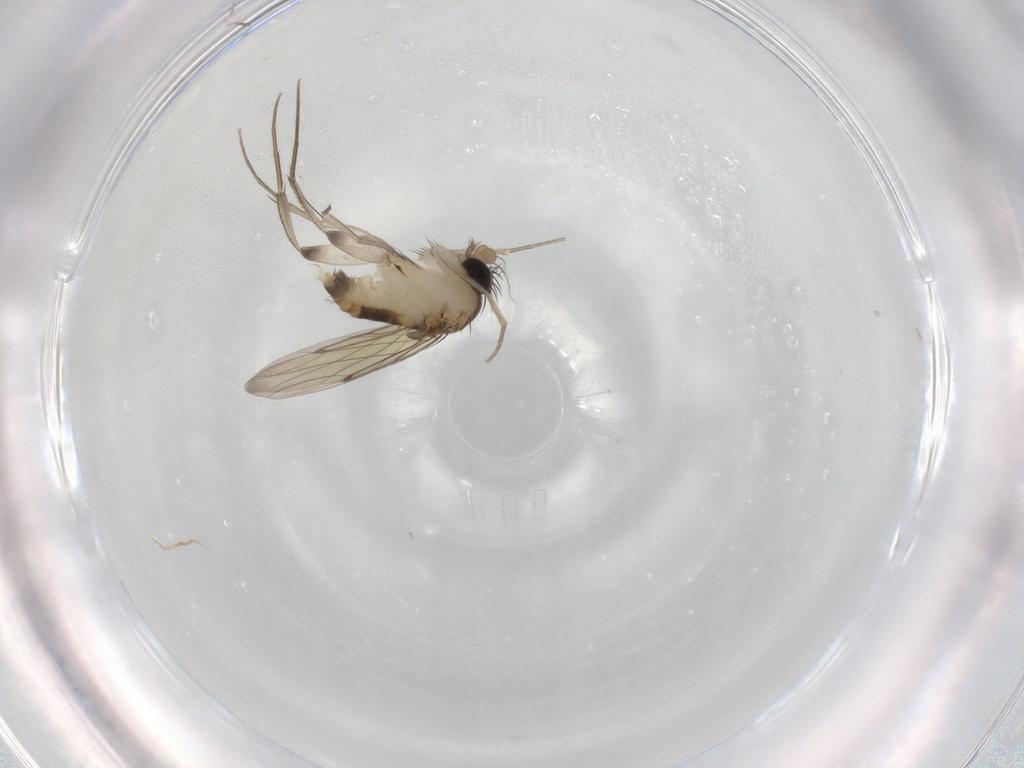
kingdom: Animalia
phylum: Arthropoda
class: Insecta
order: Diptera
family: Phoridae
